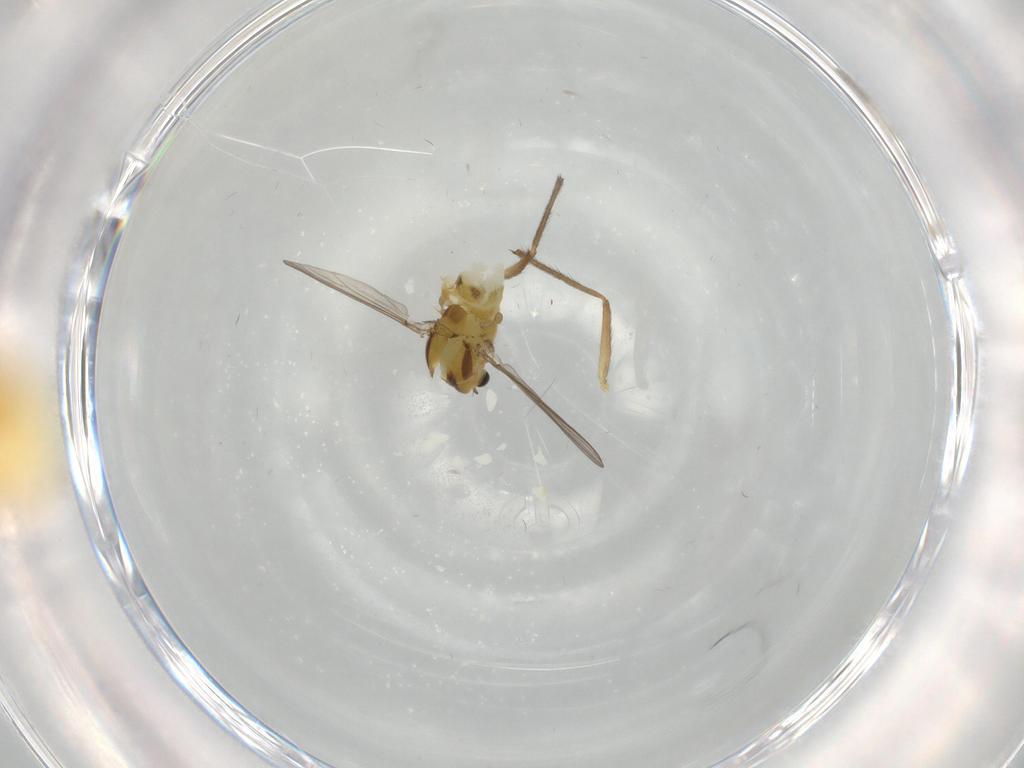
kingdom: Animalia
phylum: Arthropoda
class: Insecta
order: Diptera
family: Chironomidae
